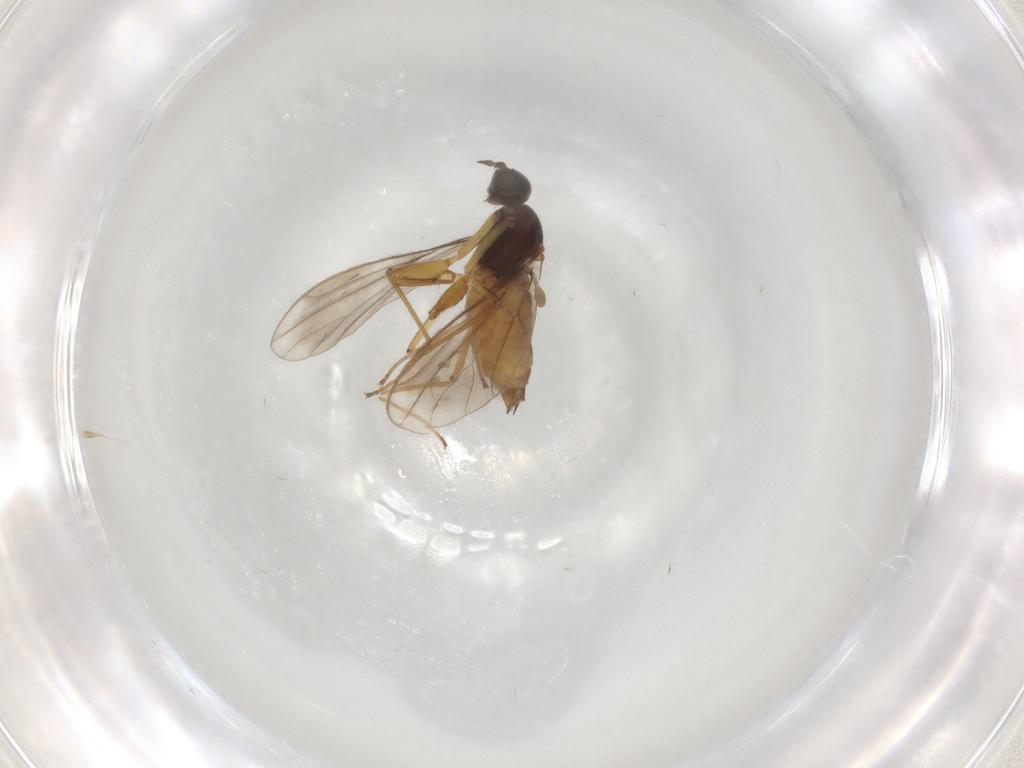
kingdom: Animalia
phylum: Arthropoda
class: Insecta
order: Diptera
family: Empididae
